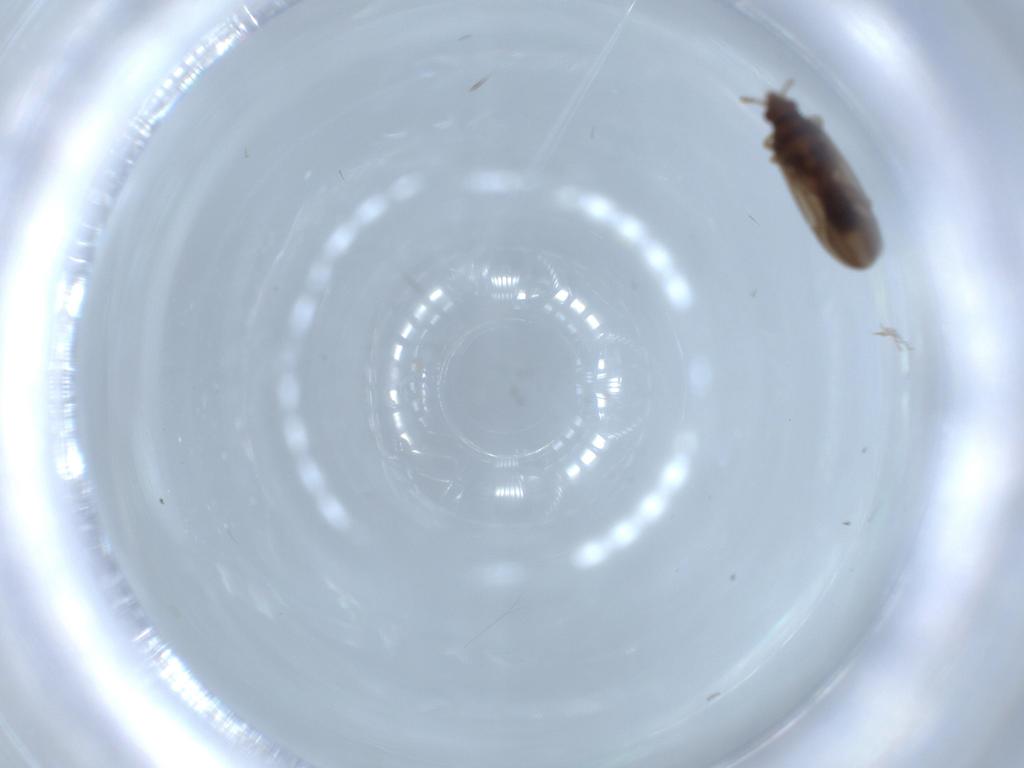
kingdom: Animalia
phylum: Arthropoda
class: Insecta
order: Hemiptera
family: Ceratocombidae
